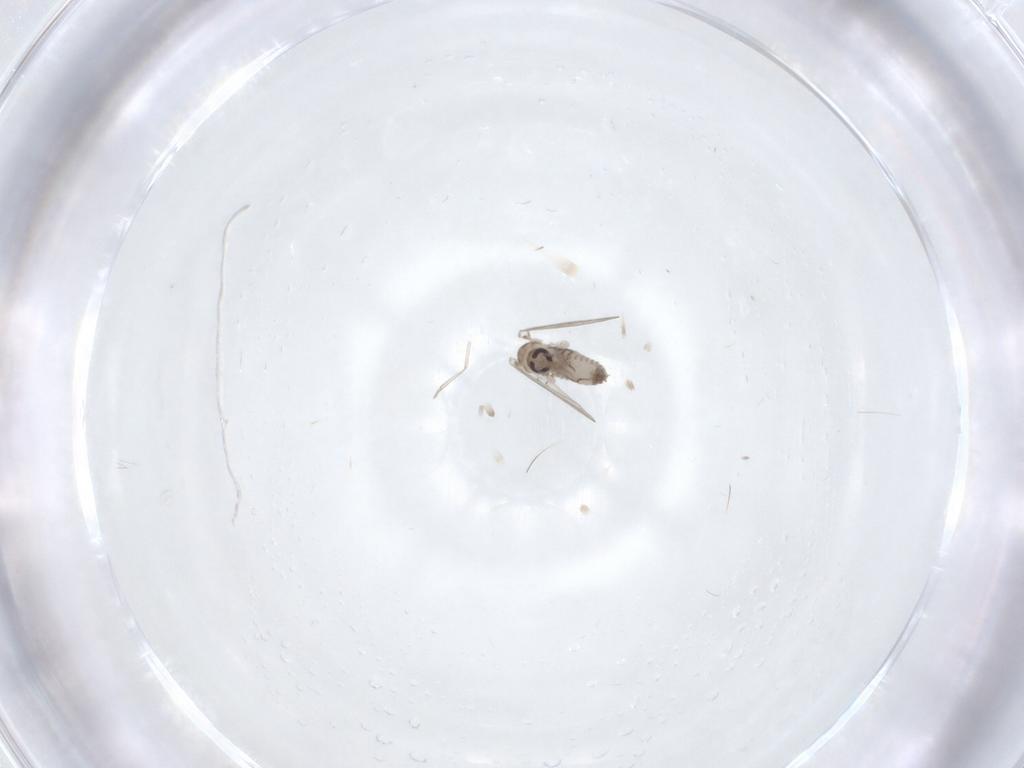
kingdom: Animalia
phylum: Arthropoda
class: Insecta
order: Diptera
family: Psychodidae
